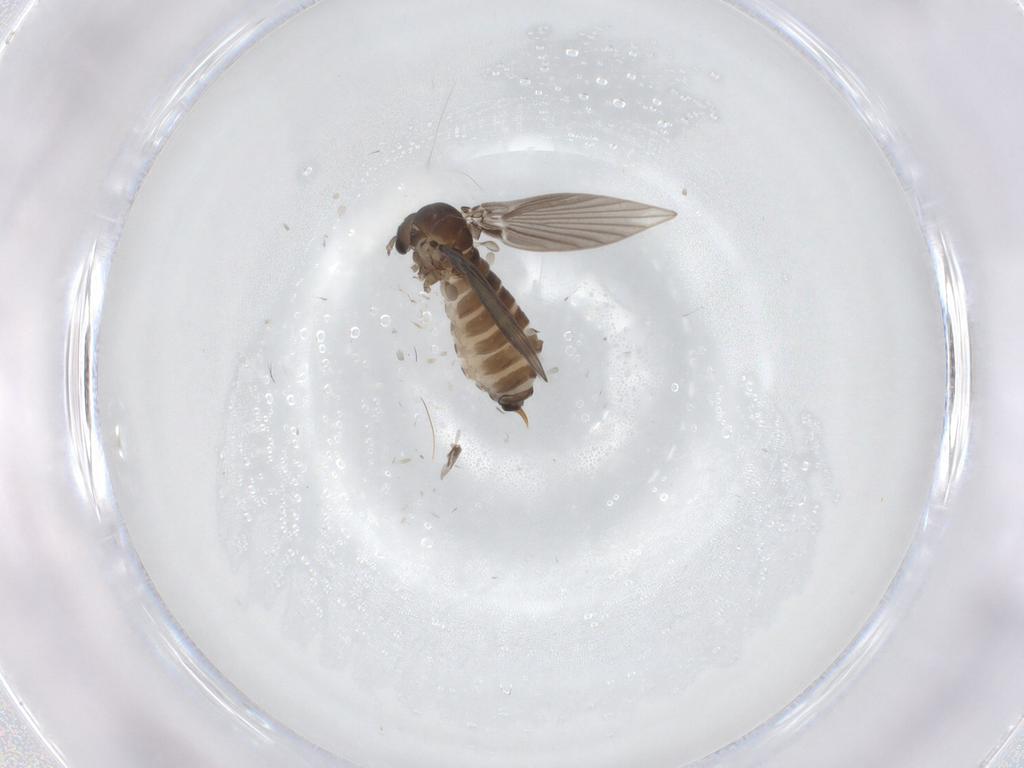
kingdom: Animalia
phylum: Arthropoda
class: Insecta
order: Diptera
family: Psychodidae
